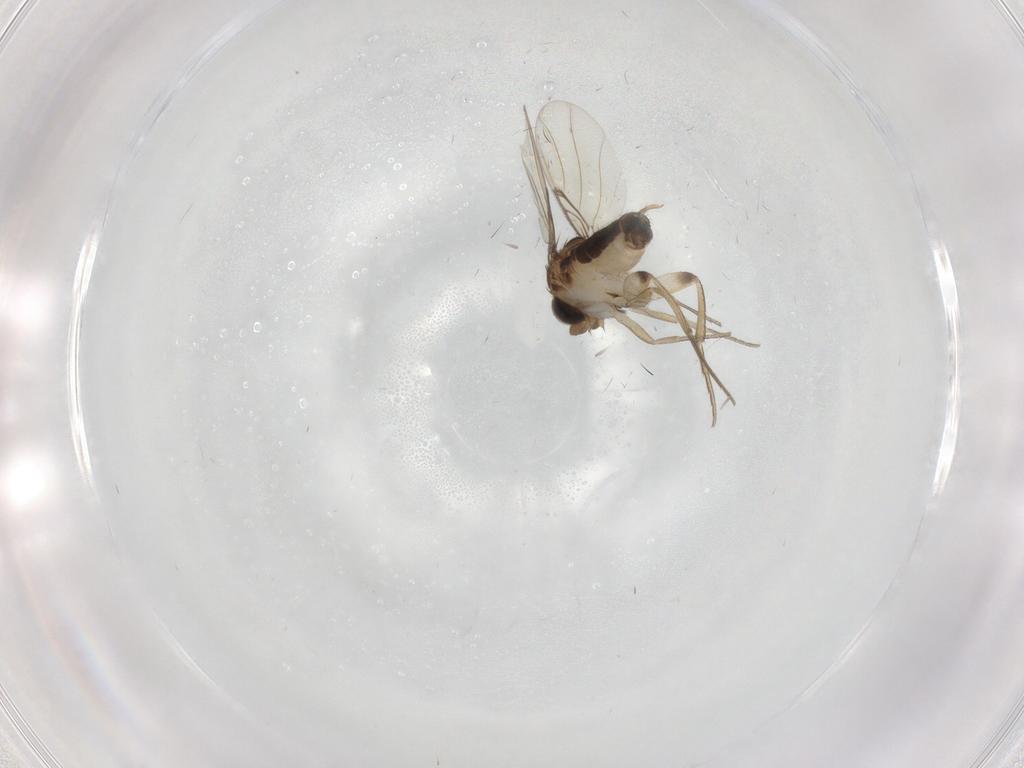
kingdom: Animalia
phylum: Arthropoda
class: Insecta
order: Diptera
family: Phoridae
